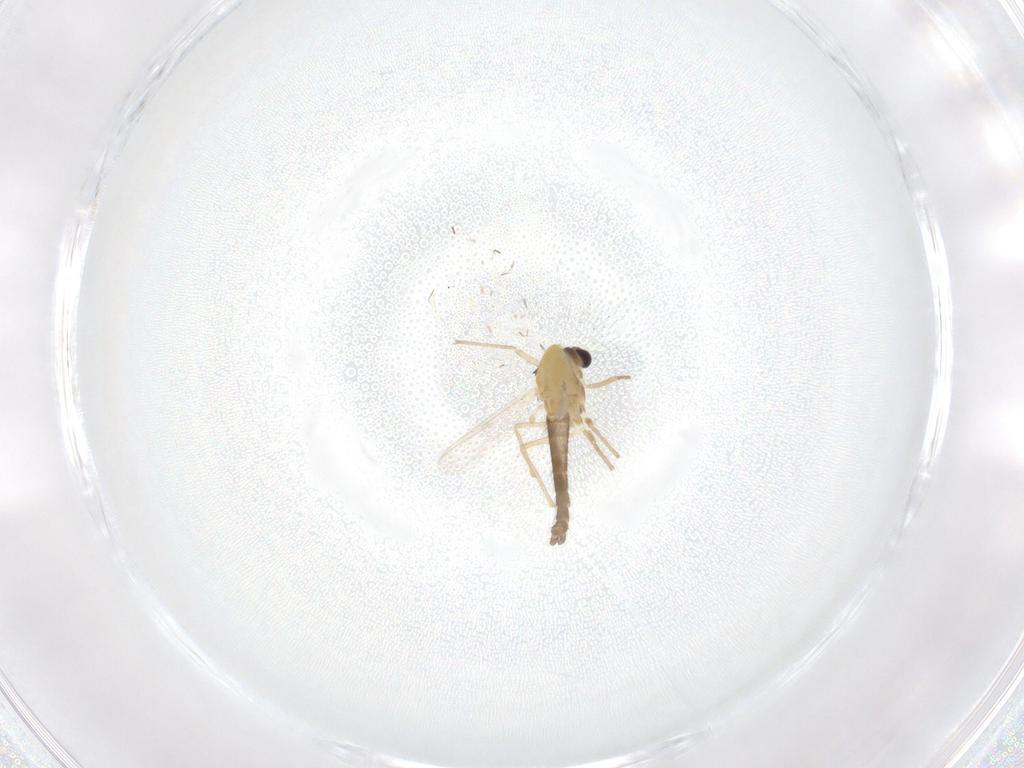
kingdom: Animalia
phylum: Arthropoda
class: Insecta
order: Diptera
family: Chironomidae
